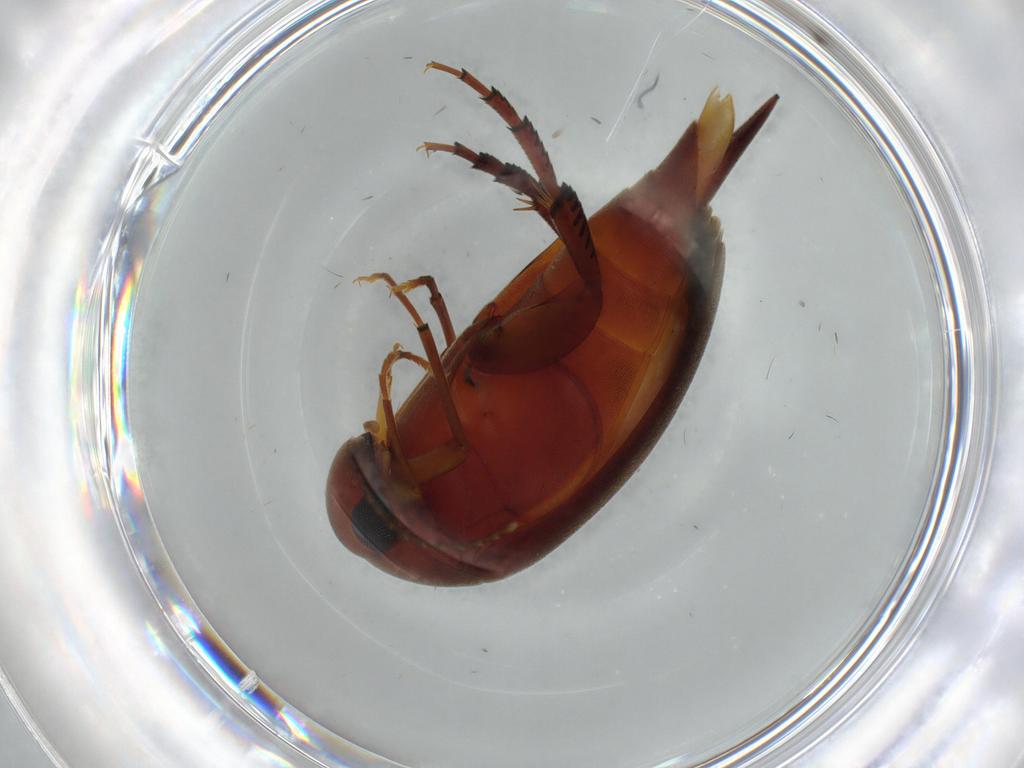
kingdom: Animalia
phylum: Arthropoda
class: Insecta
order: Coleoptera
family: Mordellidae
